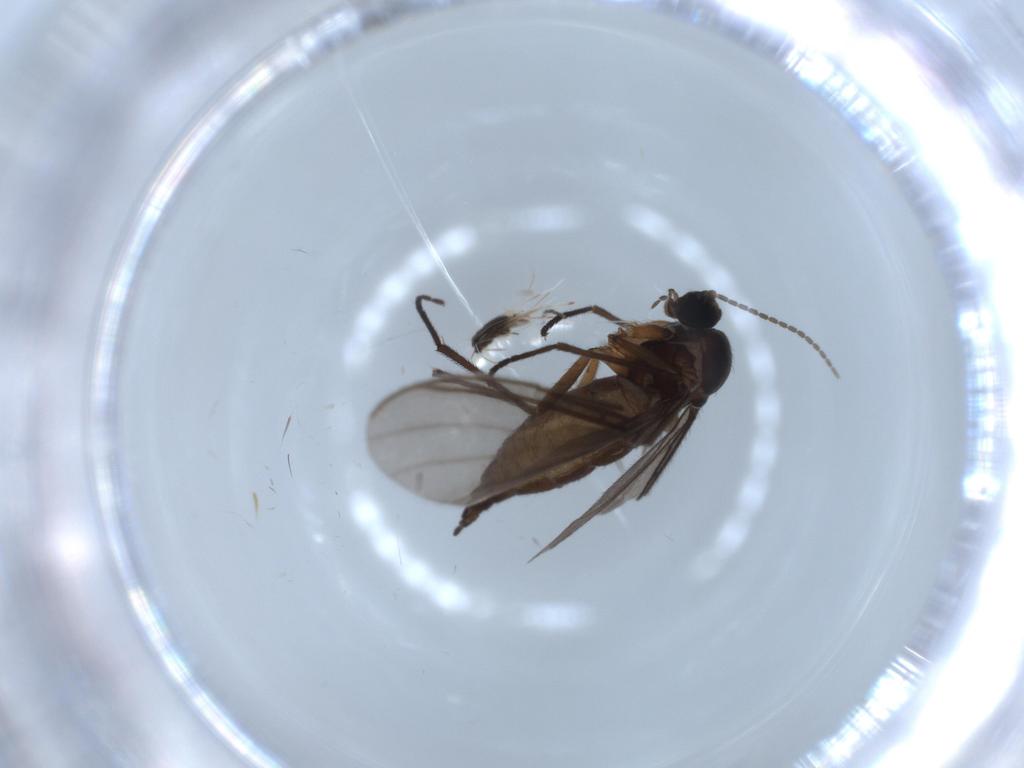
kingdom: Animalia
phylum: Arthropoda
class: Insecta
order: Diptera
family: Sciaridae
